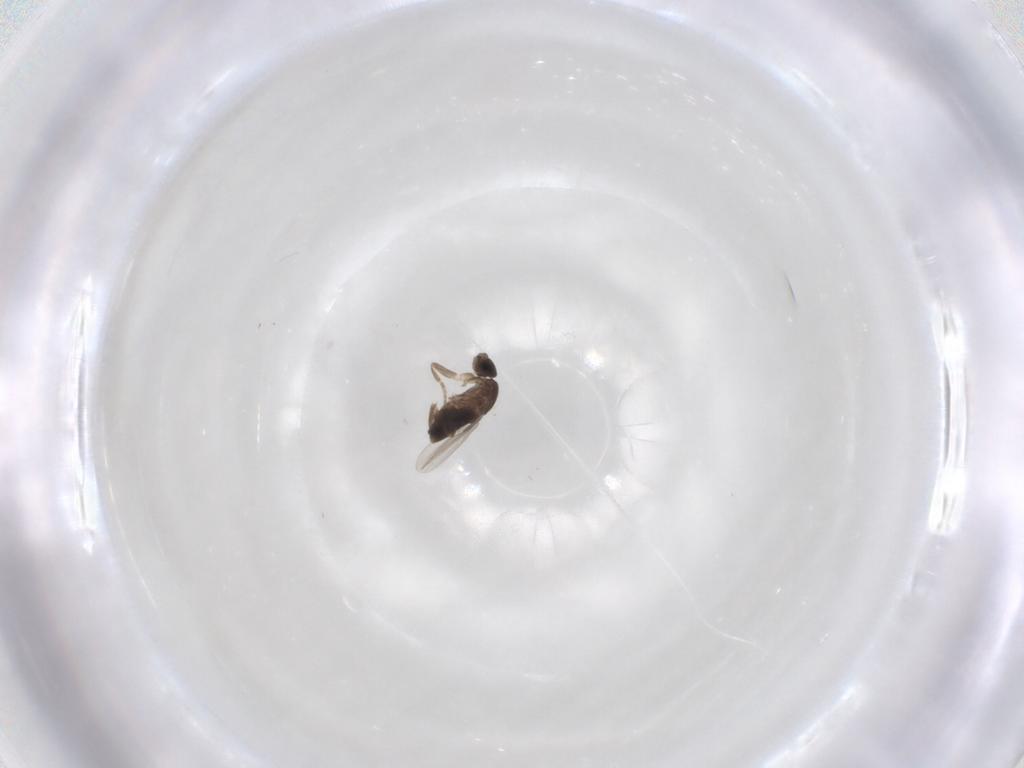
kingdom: Animalia
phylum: Arthropoda
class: Insecta
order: Diptera
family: Phoridae
